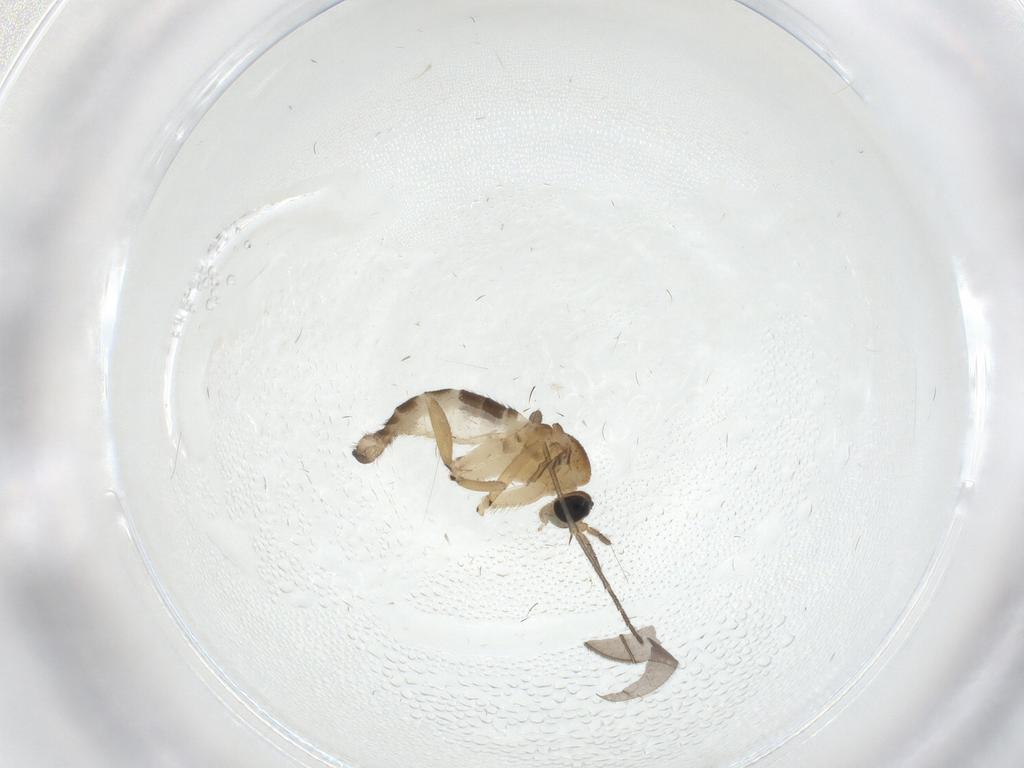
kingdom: Animalia
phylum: Arthropoda
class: Insecta
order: Diptera
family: Sciaridae
